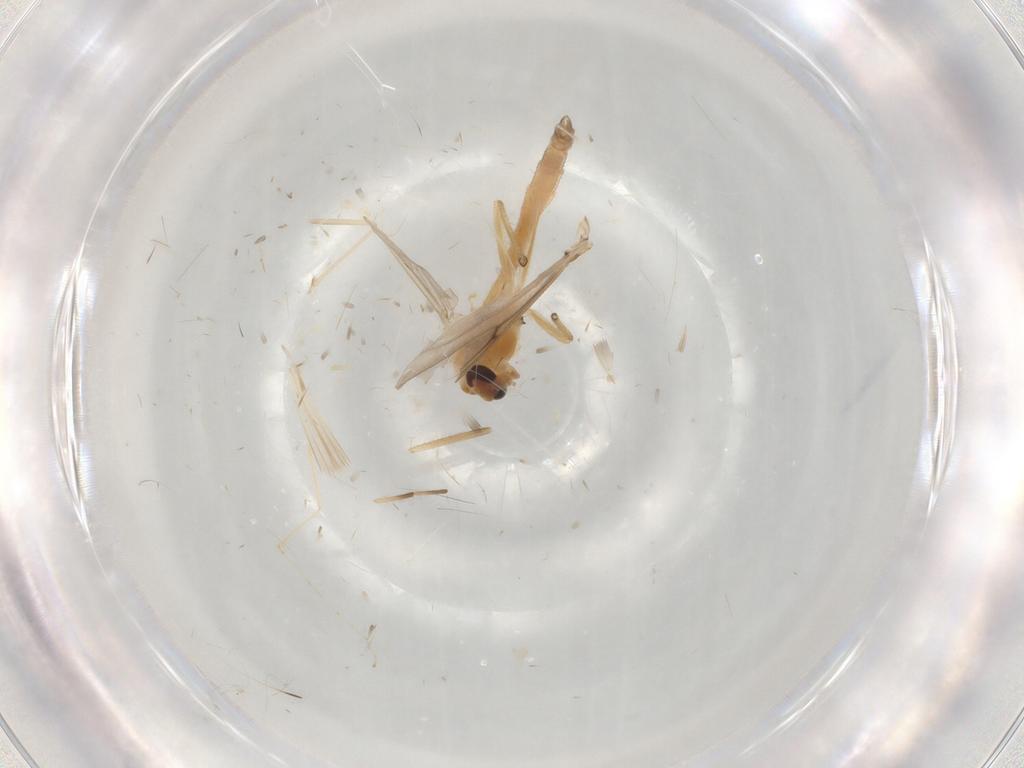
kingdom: Animalia
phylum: Arthropoda
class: Insecta
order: Diptera
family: Chironomidae
